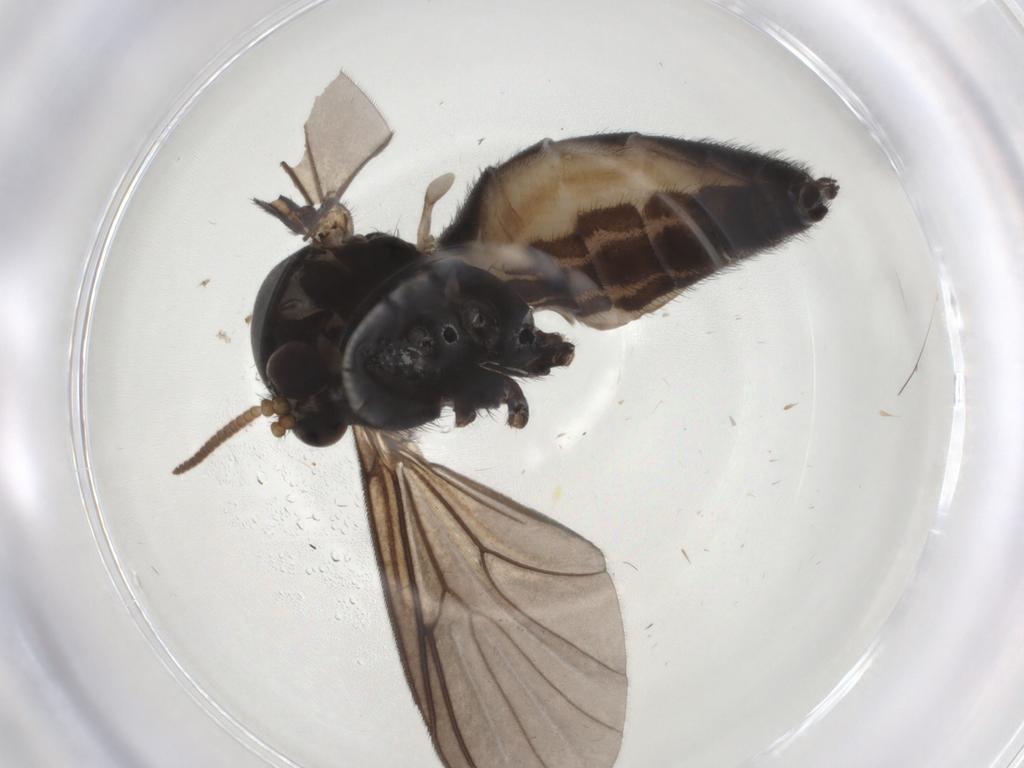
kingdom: Animalia
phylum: Arthropoda
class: Insecta
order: Diptera
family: Mycetophilidae
